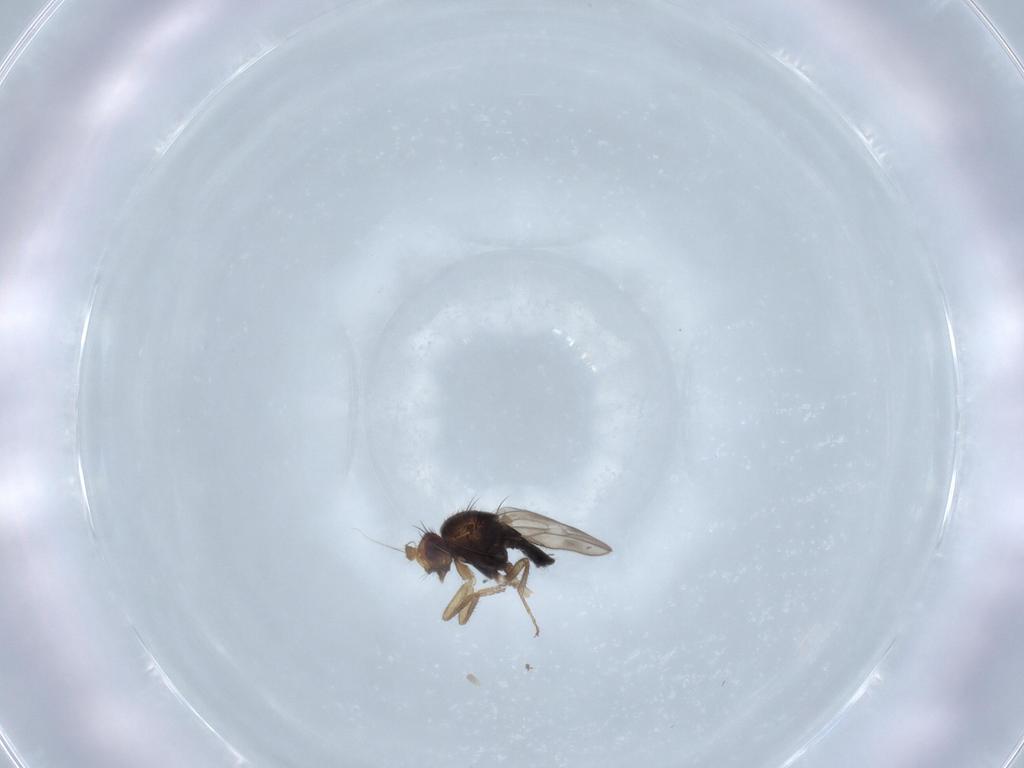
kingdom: Animalia
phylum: Arthropoda
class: Insecta
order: Diptera
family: Sphaeroceridae
